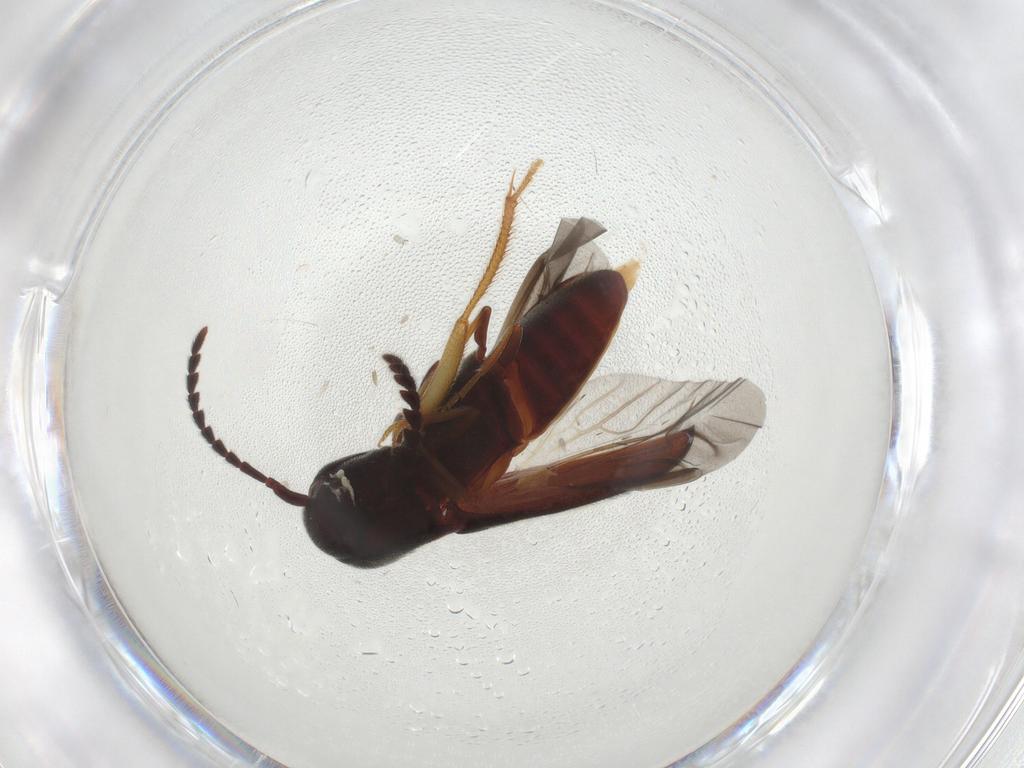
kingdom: Animalia
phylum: Arthropoda
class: Insecta
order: Coleoptera
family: Eucnemidae
